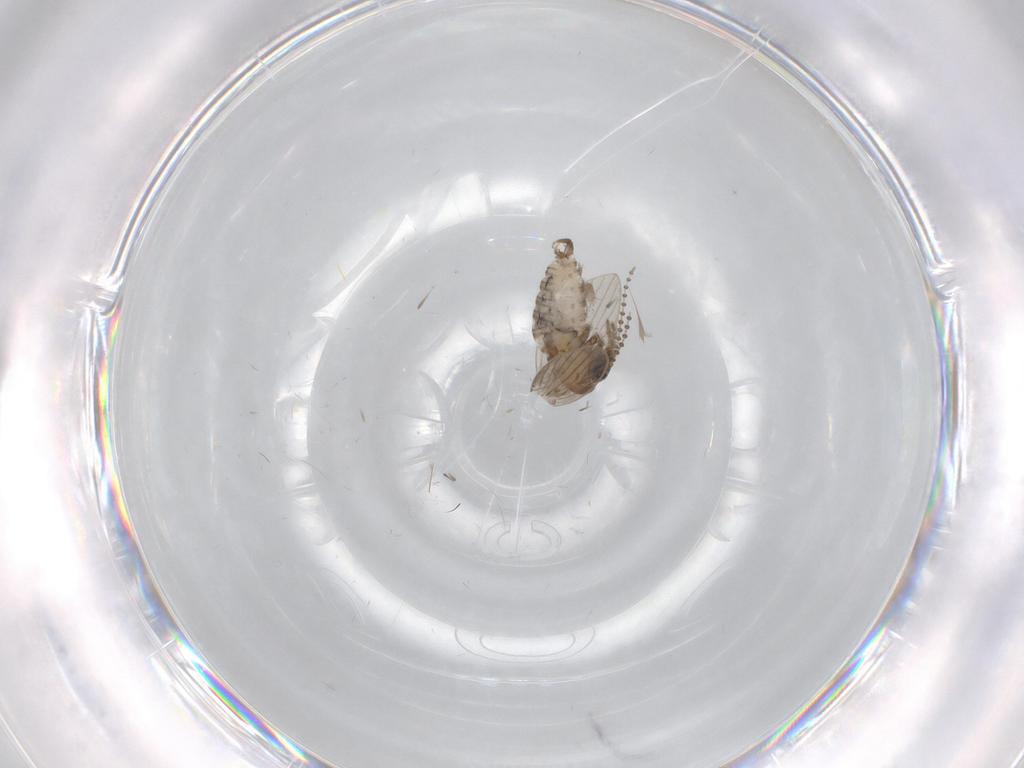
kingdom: Animalia
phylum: Arthropoda
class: Insecta
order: Diptera
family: Psychodidae
